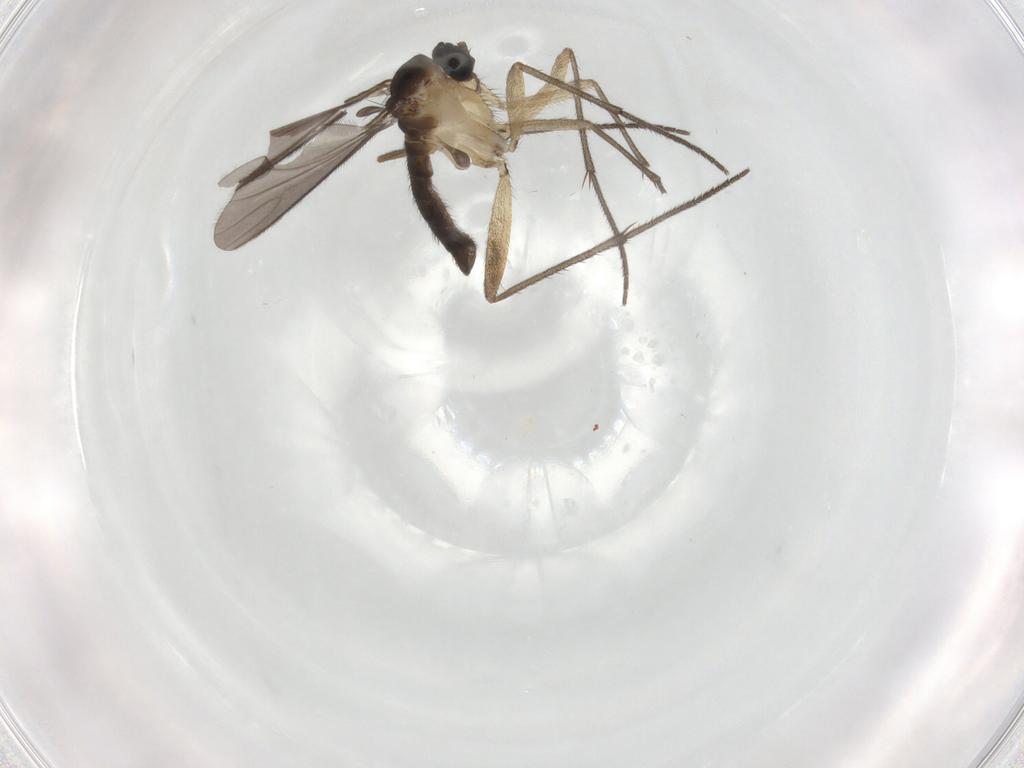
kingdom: Animalia
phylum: Arthropoda
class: Insecta
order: Diptera
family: Sciaridae
